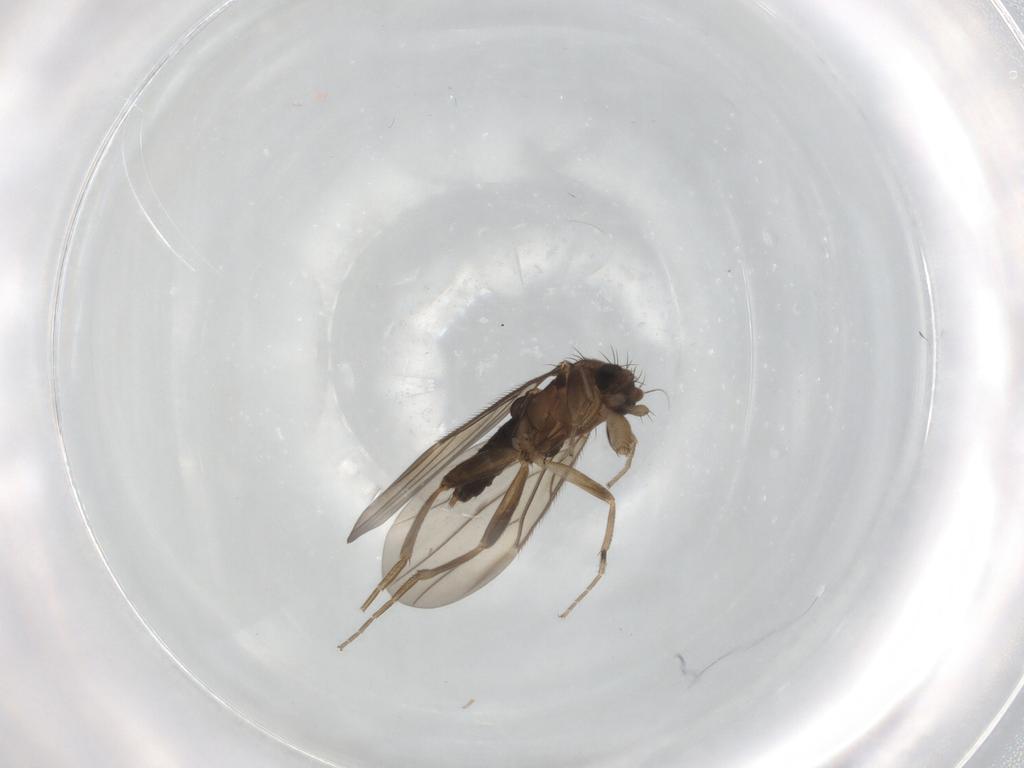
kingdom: Animalia
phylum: Arthropoda
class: Insecta
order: Diptera
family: Phoridae
